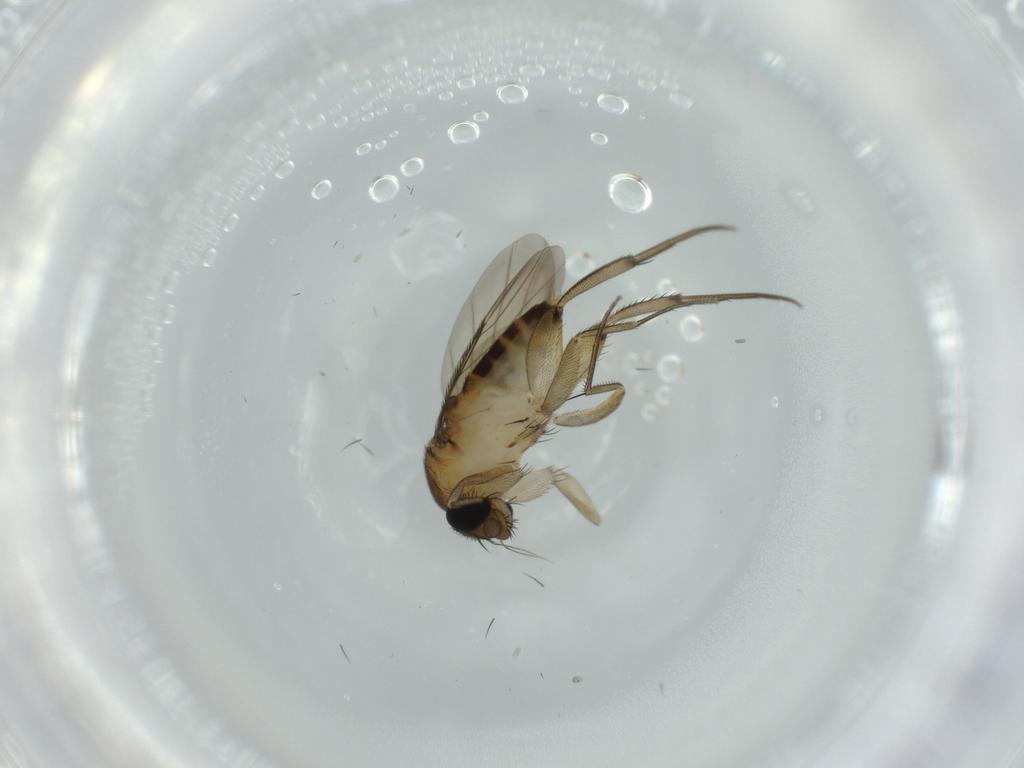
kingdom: Animalia
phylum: Arthropoda
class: Insecta
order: Diptera
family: Phoridae
